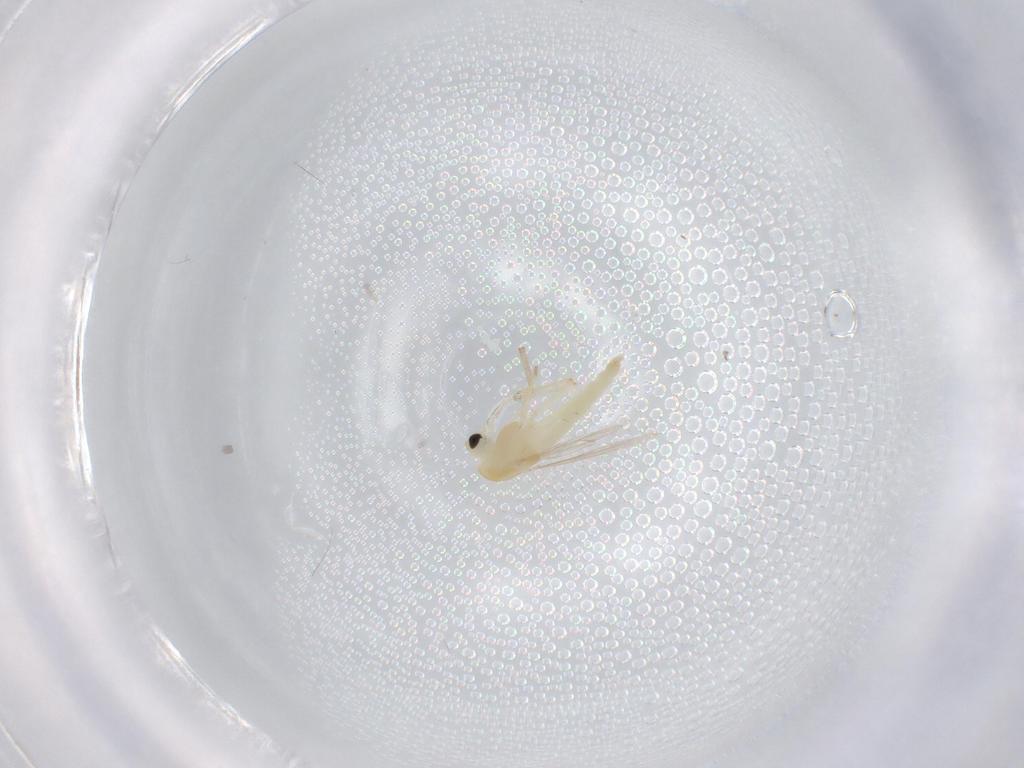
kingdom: Animalia
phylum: Arthropoda
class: Insecta
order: Diptera
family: Chironomidae
